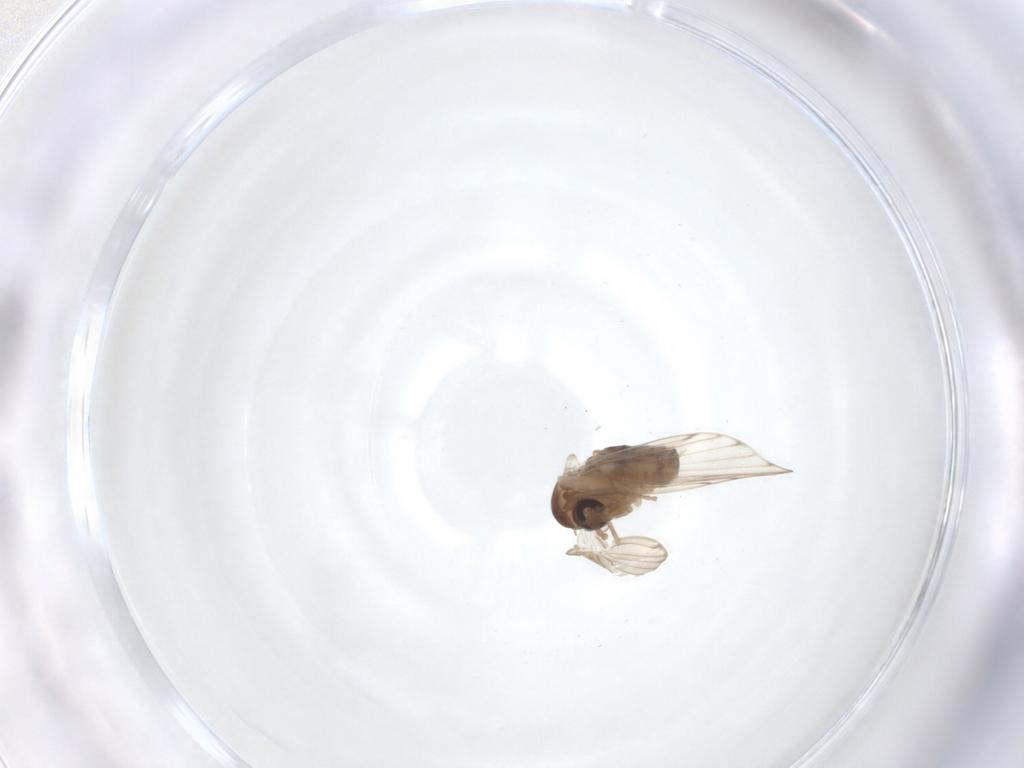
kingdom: Animalia
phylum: Arthropoda
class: Insecta
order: Diptera
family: Psychodidae
